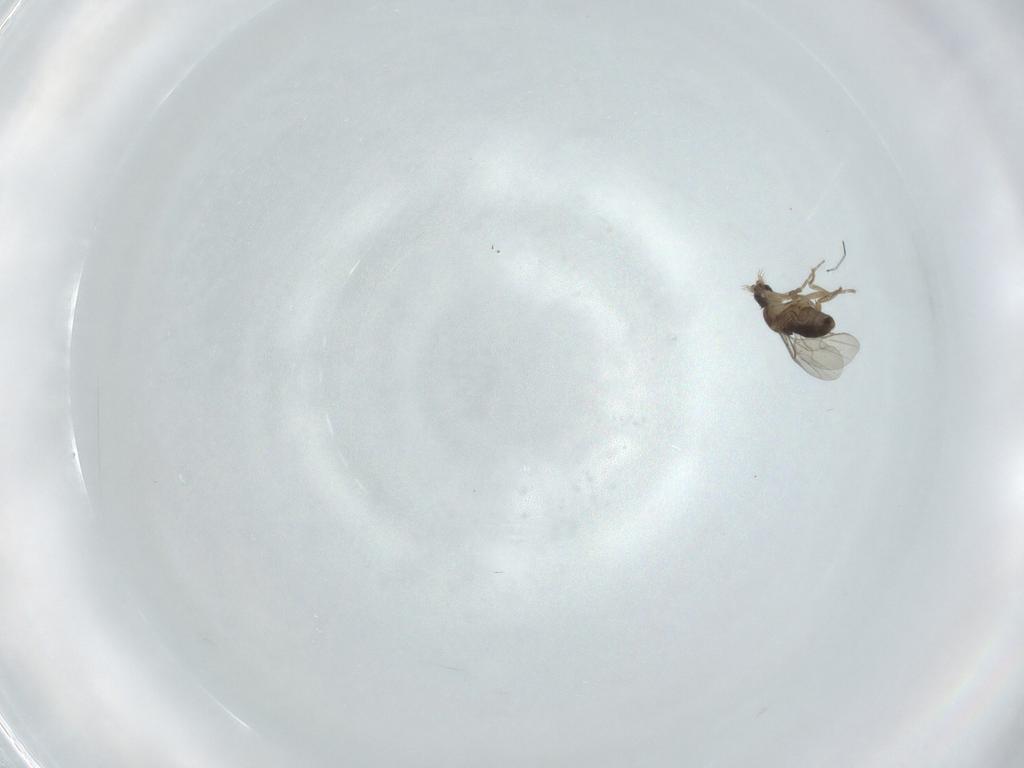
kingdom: Animalia
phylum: Arthropoda
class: Insecta
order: Diptera
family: Phoridae
